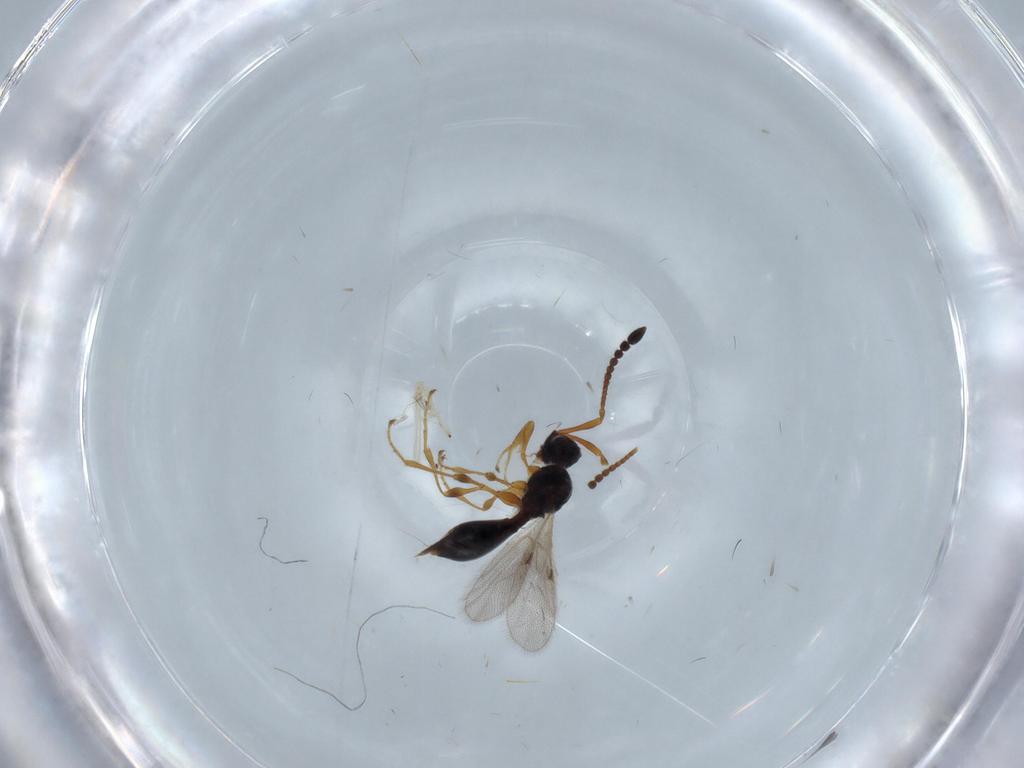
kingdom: Animalia
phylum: Arthropoda
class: Insecta
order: Hymenoptera
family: Diapriidae
